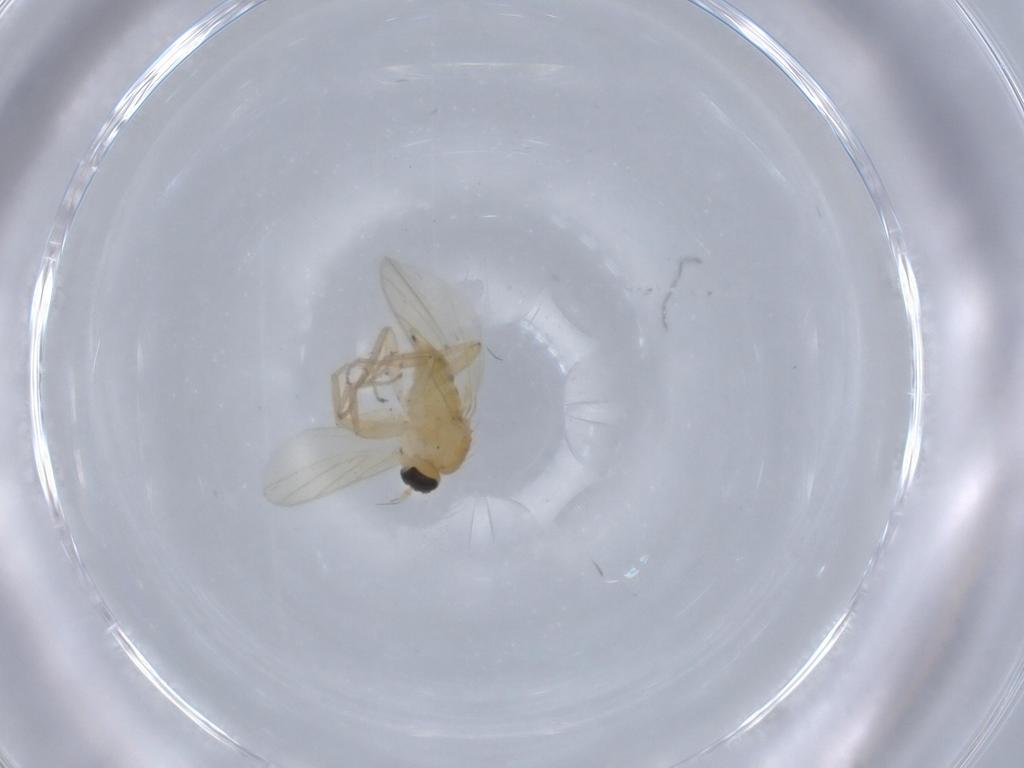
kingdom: Animalia
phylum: Arthropoda
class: Insecta
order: Diptera
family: Hybotidae
